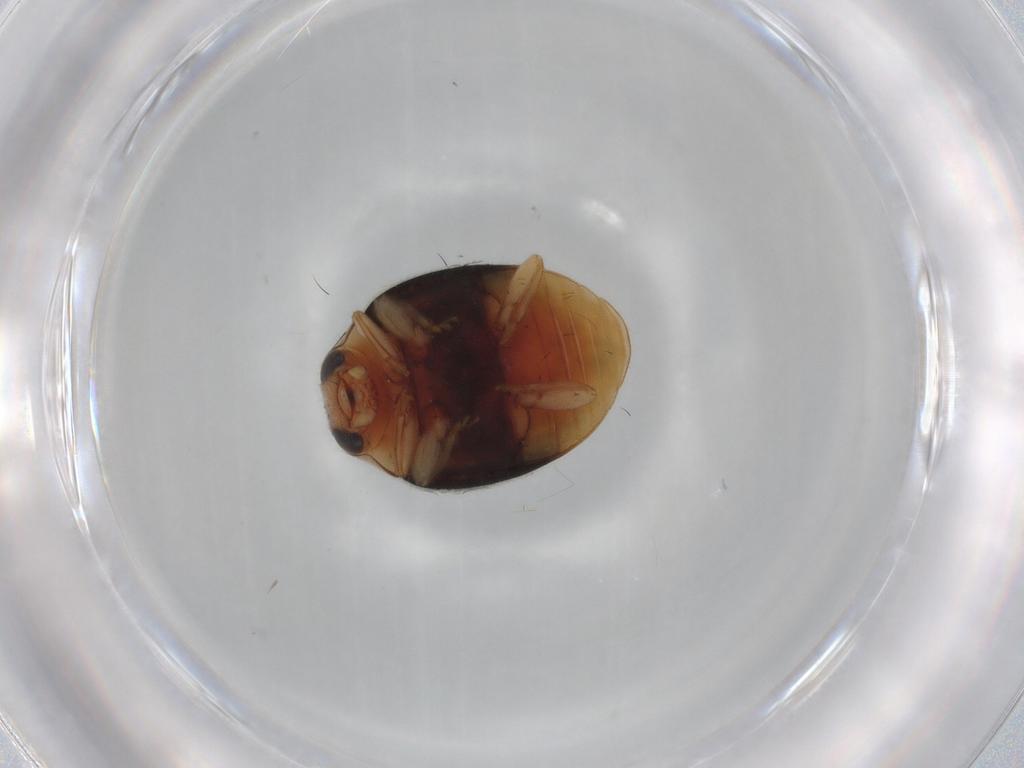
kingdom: Animalia
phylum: Arthropoda
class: Insecta
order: Coleoptera
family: Coccinellidae
